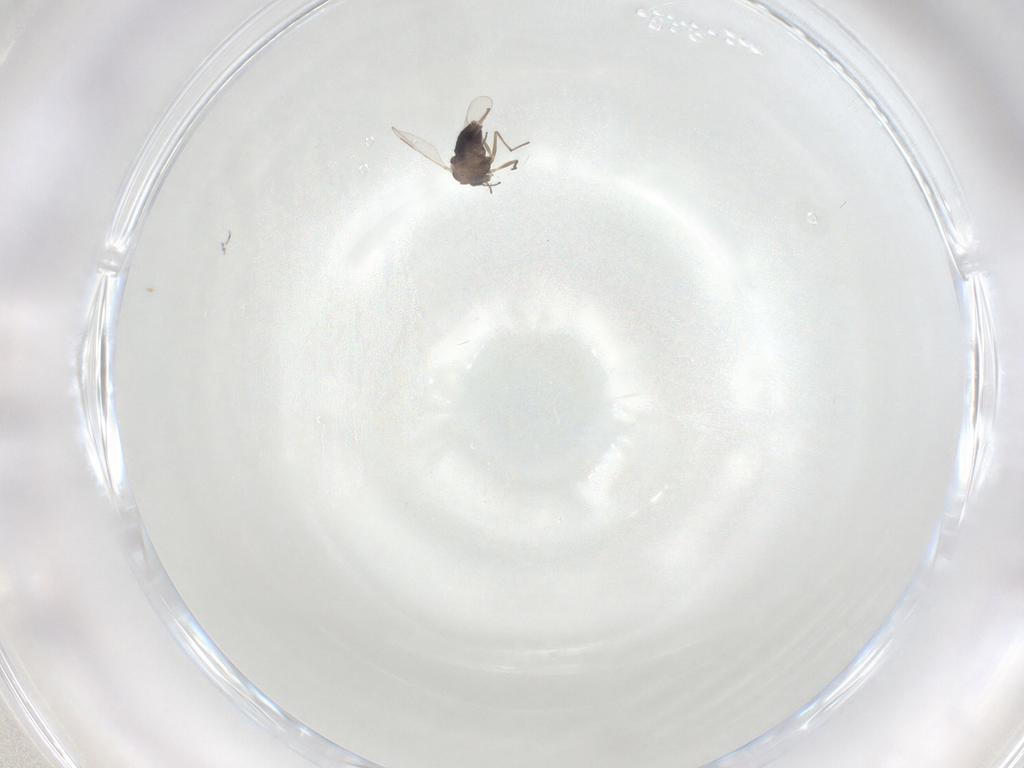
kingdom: Animalia
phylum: Arthropoda
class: Insecta
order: Diptera
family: Chironomidae
